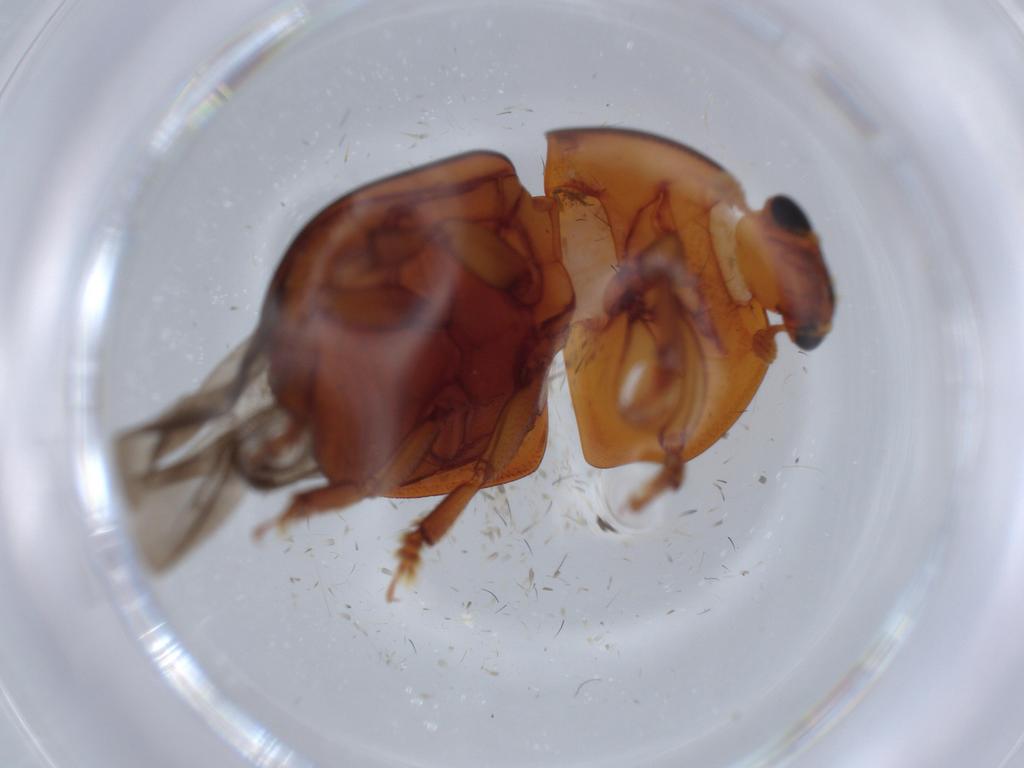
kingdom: Animalia
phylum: Arthropoda
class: Insecta
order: Coleoptera
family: Nitidulidae
